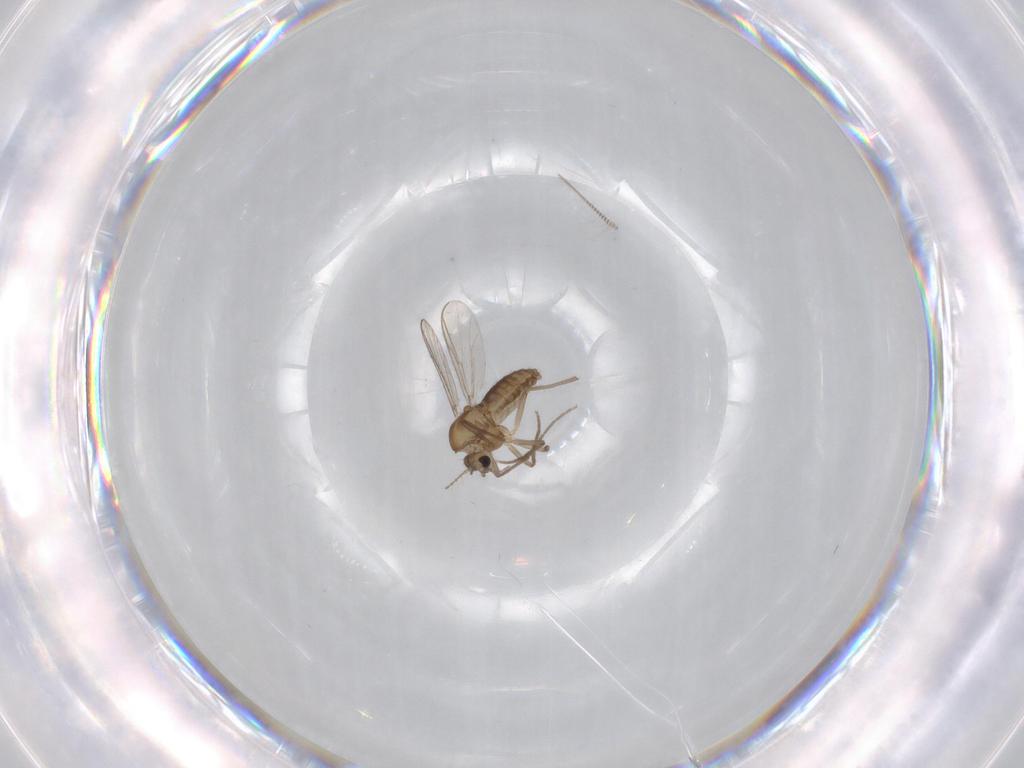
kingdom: Animalia
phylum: Arthropoda
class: Insecta
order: Diptera
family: Chironomidae
